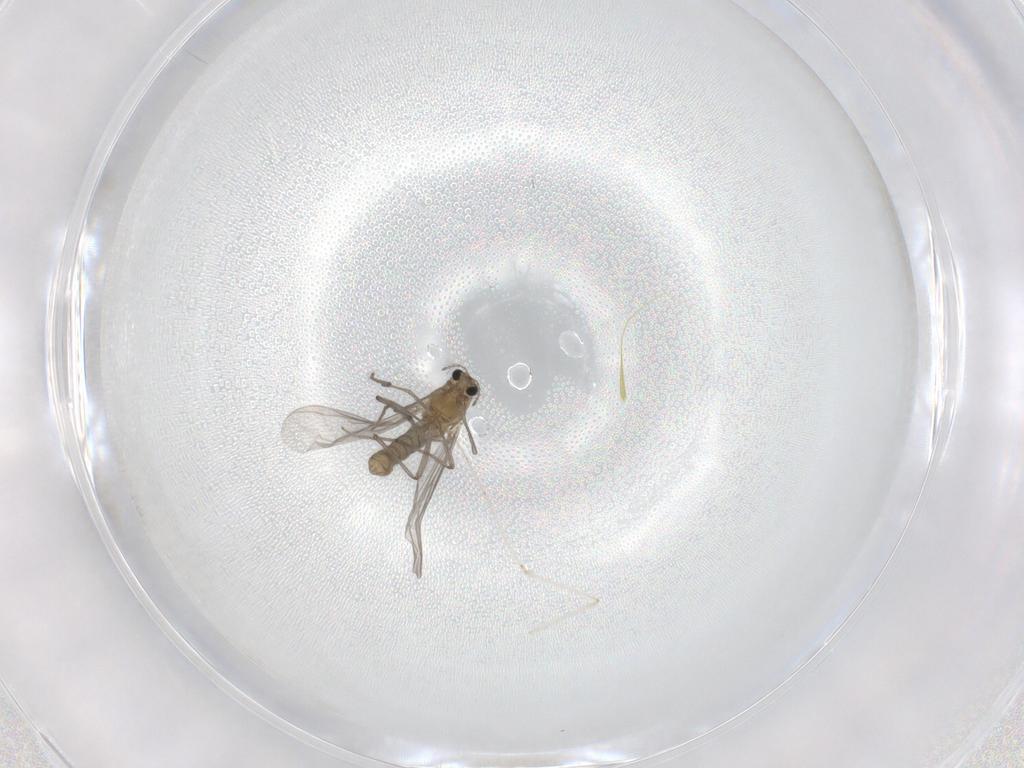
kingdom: Animalia
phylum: Arthropoda
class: Insecta
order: Diptera
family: Chironomidae
